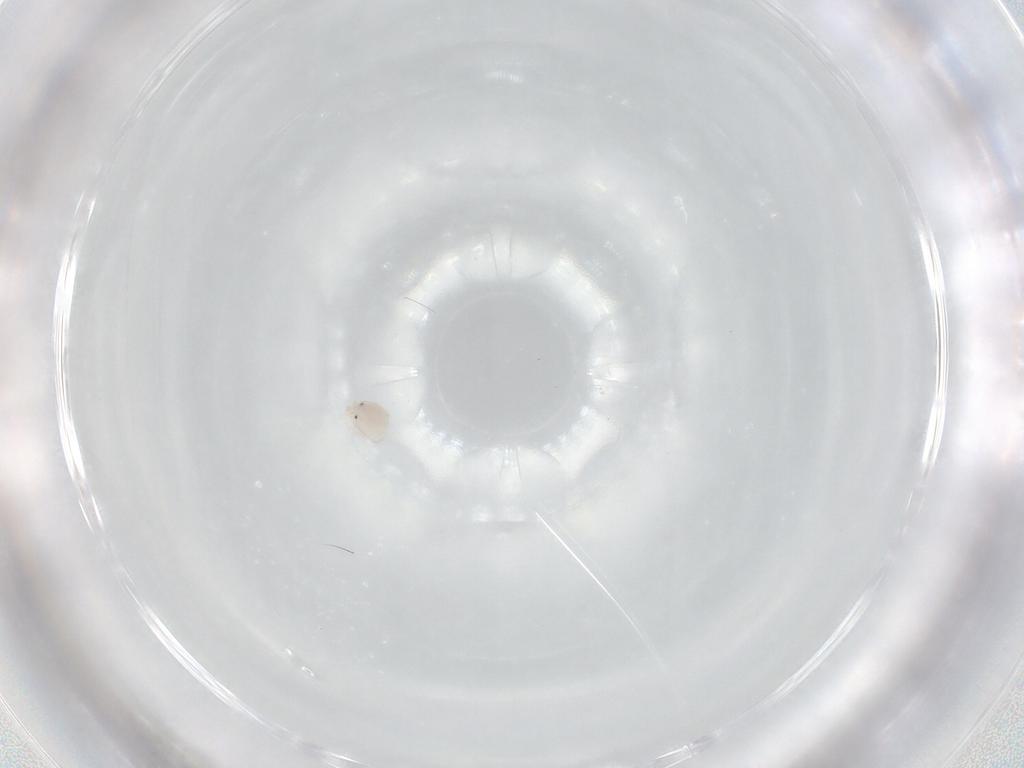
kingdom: Animalia
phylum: Arthropoda
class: Arachnida
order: Trombidiformes
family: Lebertiidae
